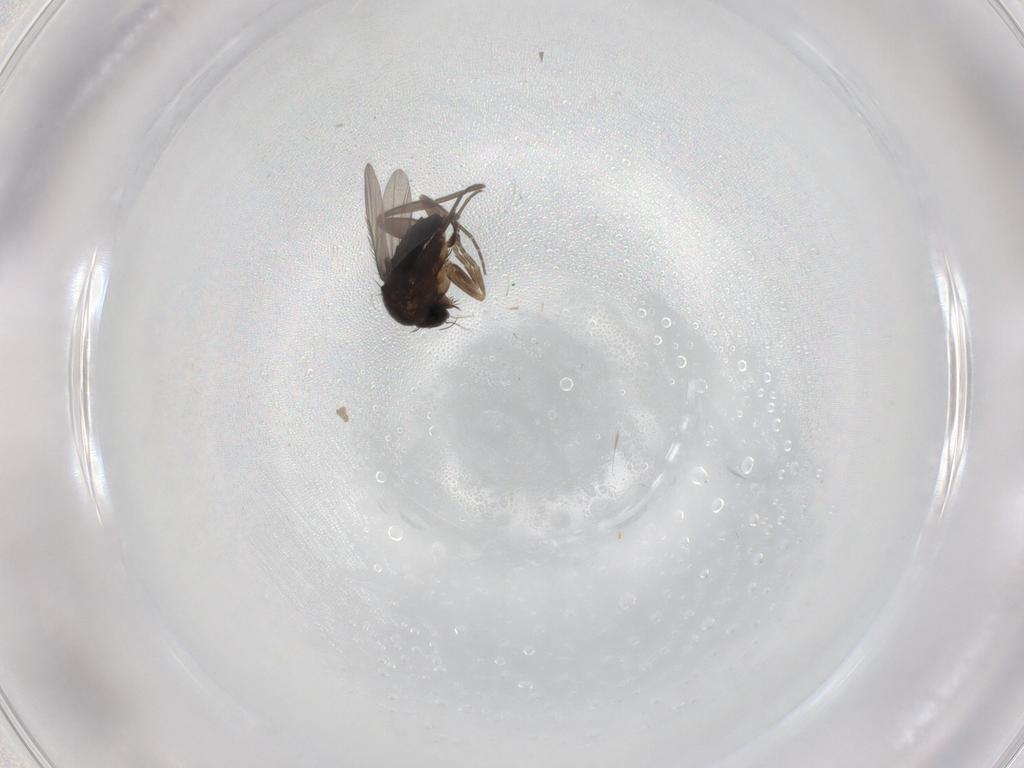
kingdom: Animalia
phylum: Arthropoda
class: Insecta
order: Diptera
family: Phoridae
